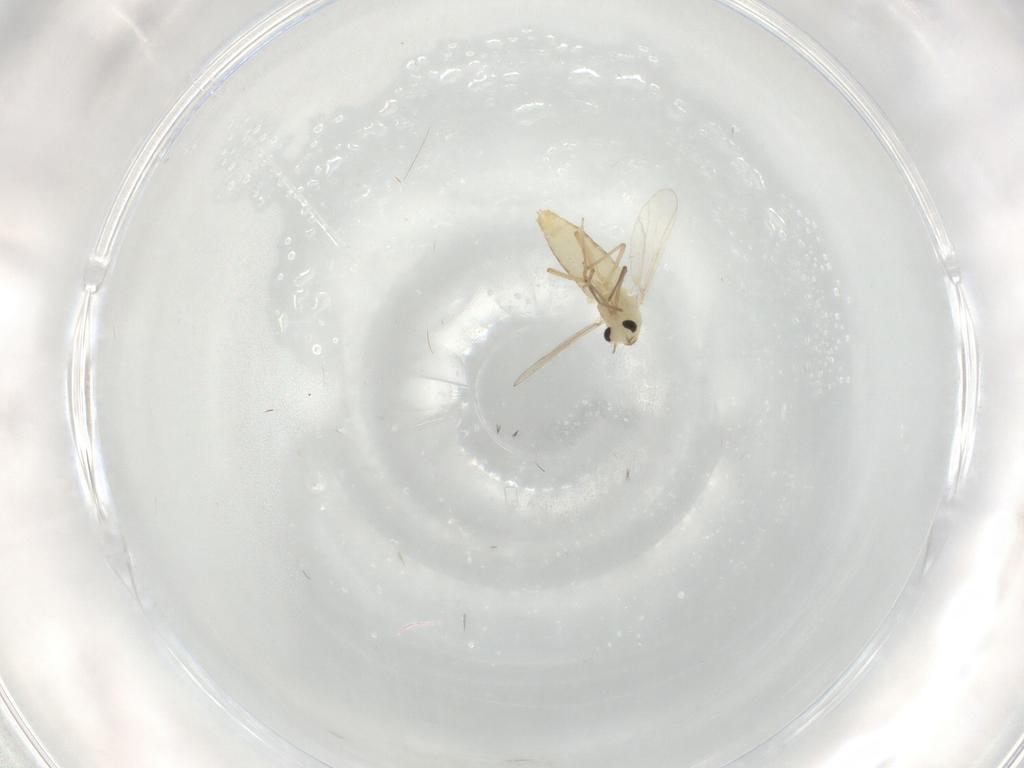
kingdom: Animalia
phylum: Arthropoda
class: Insecta
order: Diptera
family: Chironomidae
